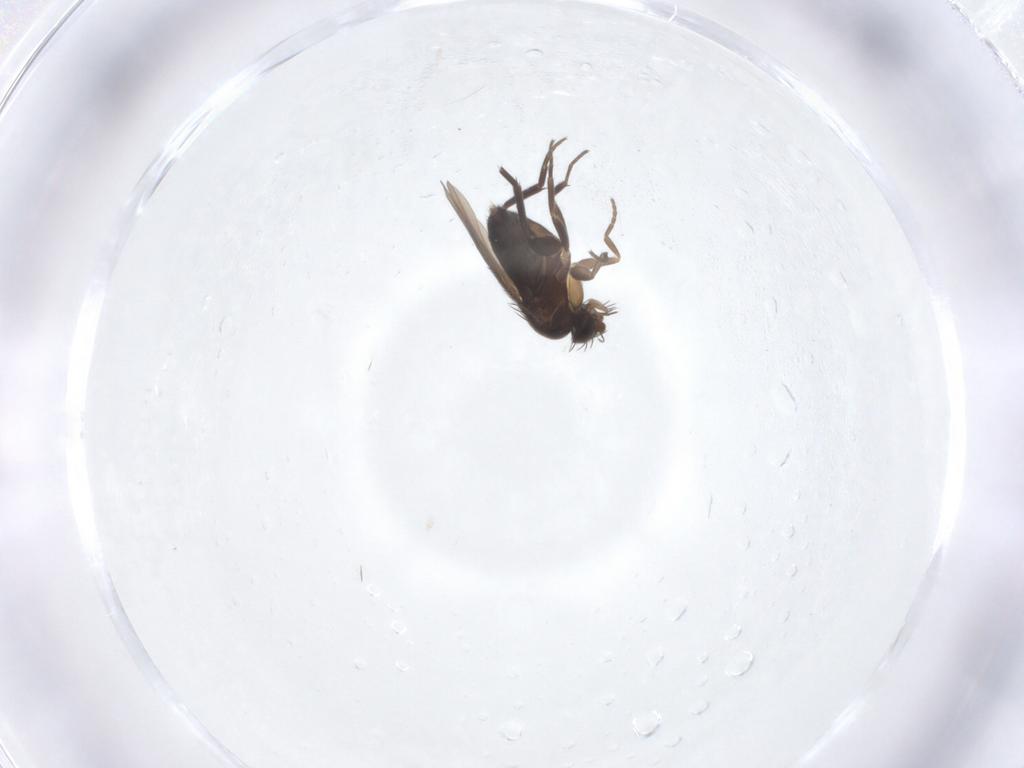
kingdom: Animalia
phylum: Arthropoda
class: Insecta
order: Diptera
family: Phoridae
